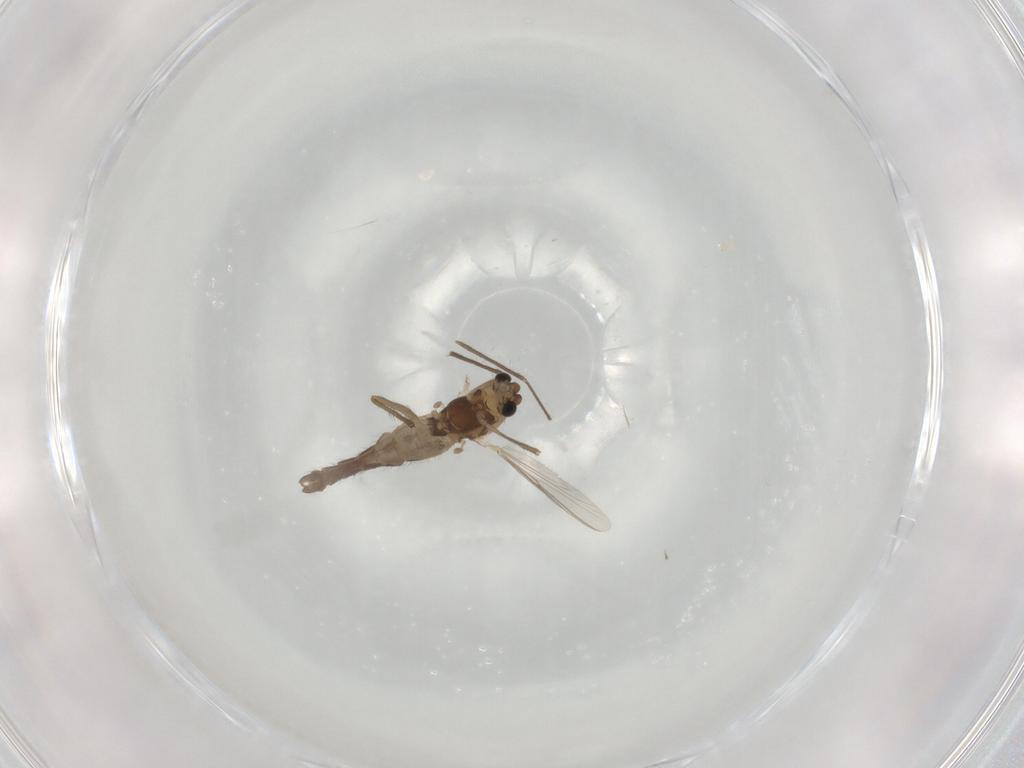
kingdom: Animalia
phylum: Arthropoda
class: Insecta
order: Diptera
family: Chironomidae
